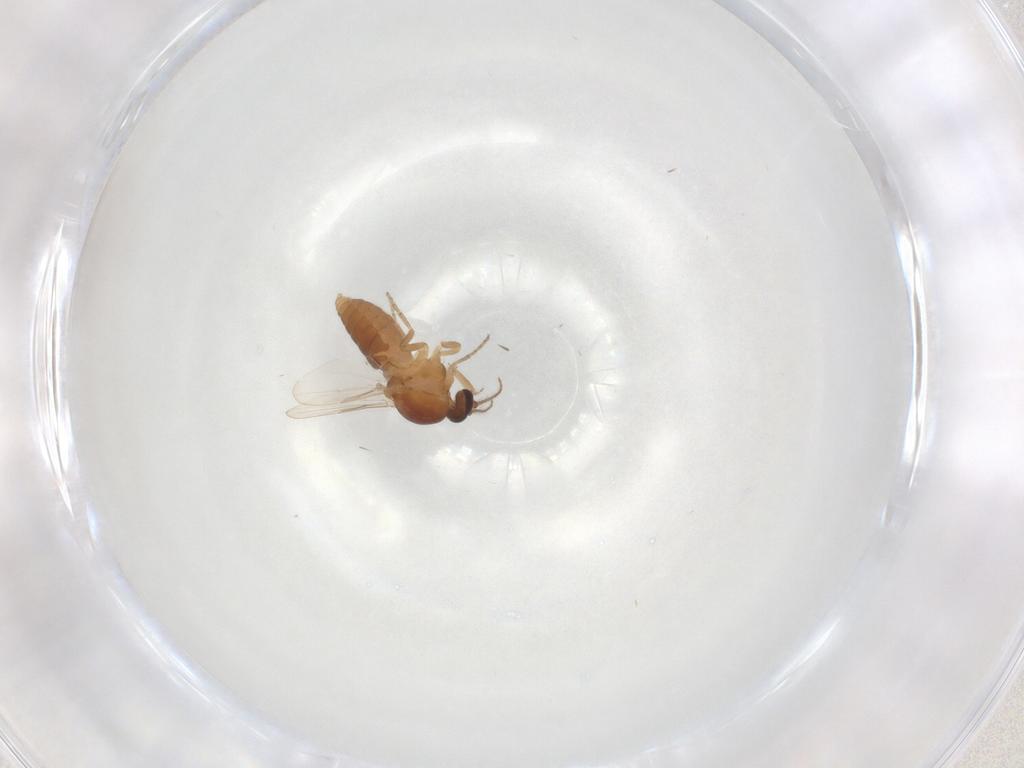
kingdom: Animalia
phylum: Arthropoda
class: Insecta
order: Diptera
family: Ceratopogonidae
